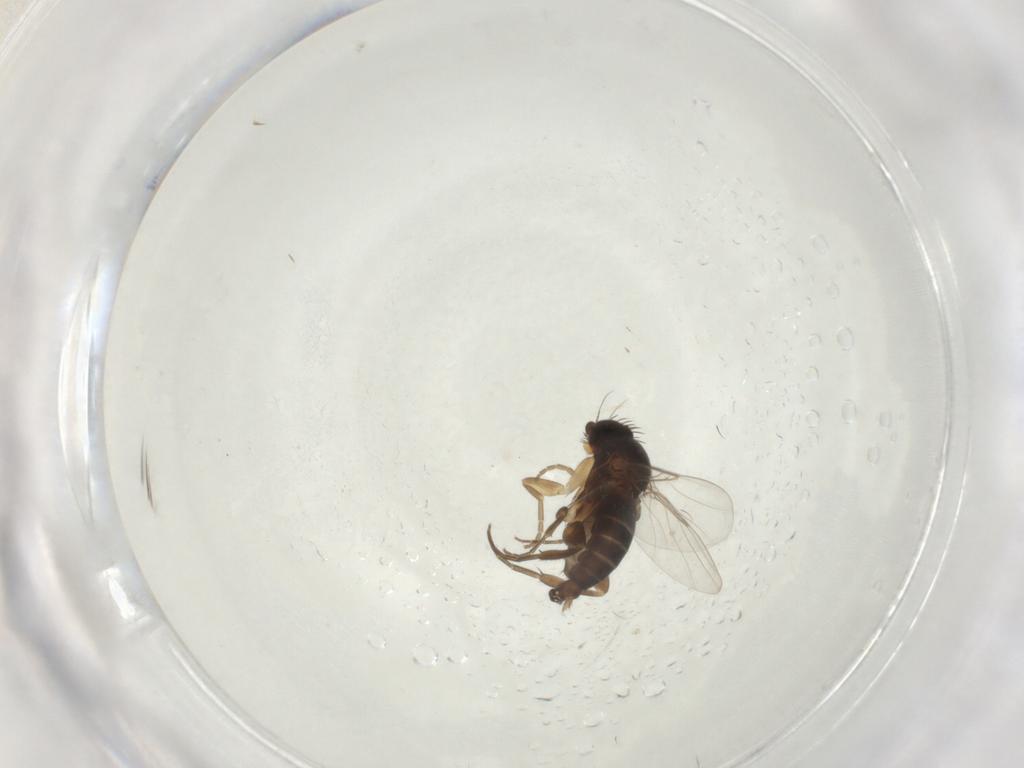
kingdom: Animalia
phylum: Arthropoda
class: Insecta
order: Diptera
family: Phoridae
